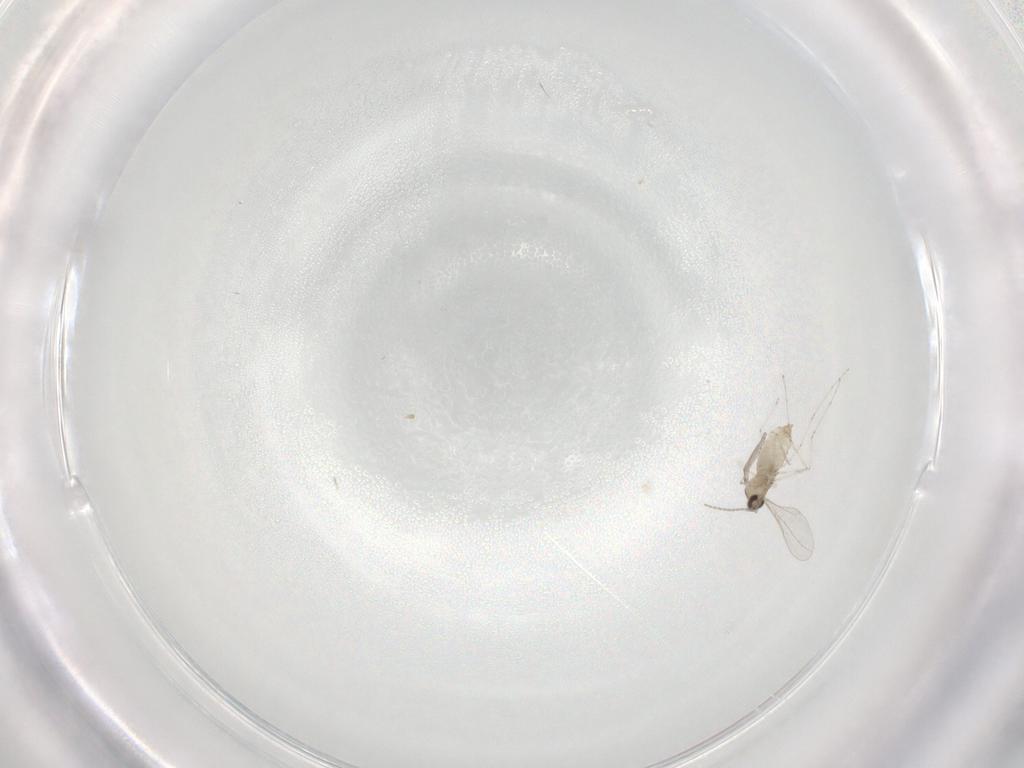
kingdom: Animalia
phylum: Arthropoda
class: Insecta
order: Diptera
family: Cecidomyiidae
